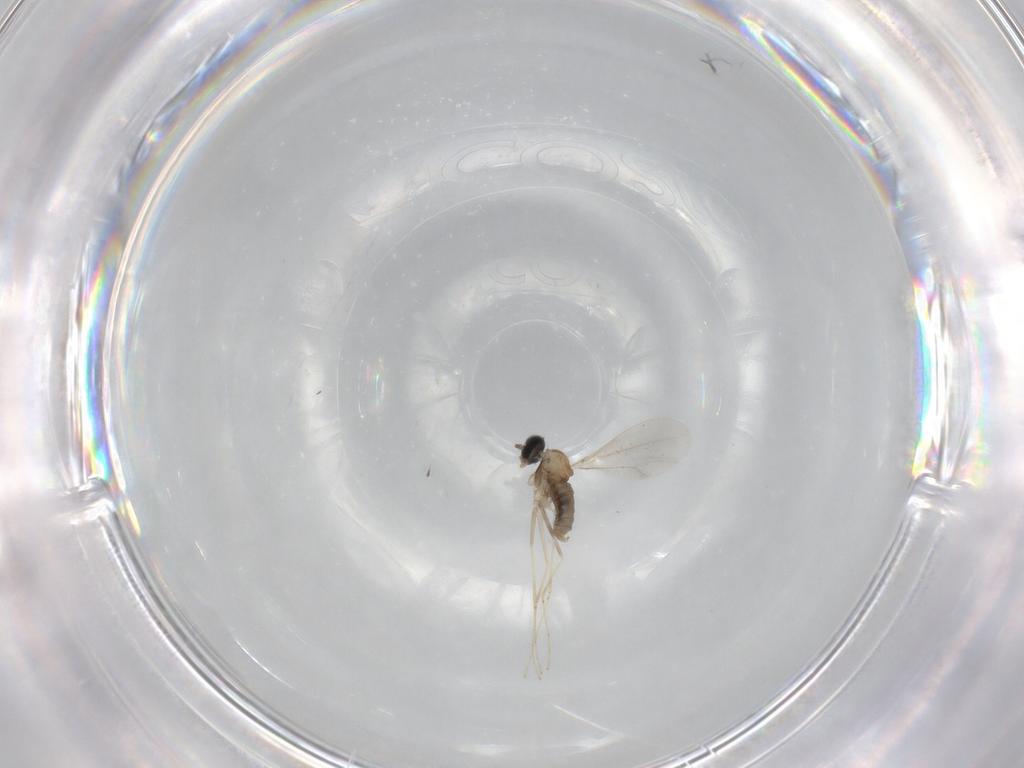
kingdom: Animalia
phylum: Arthropoda
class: Insecta
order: Diptera
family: Cecidomyiidae
